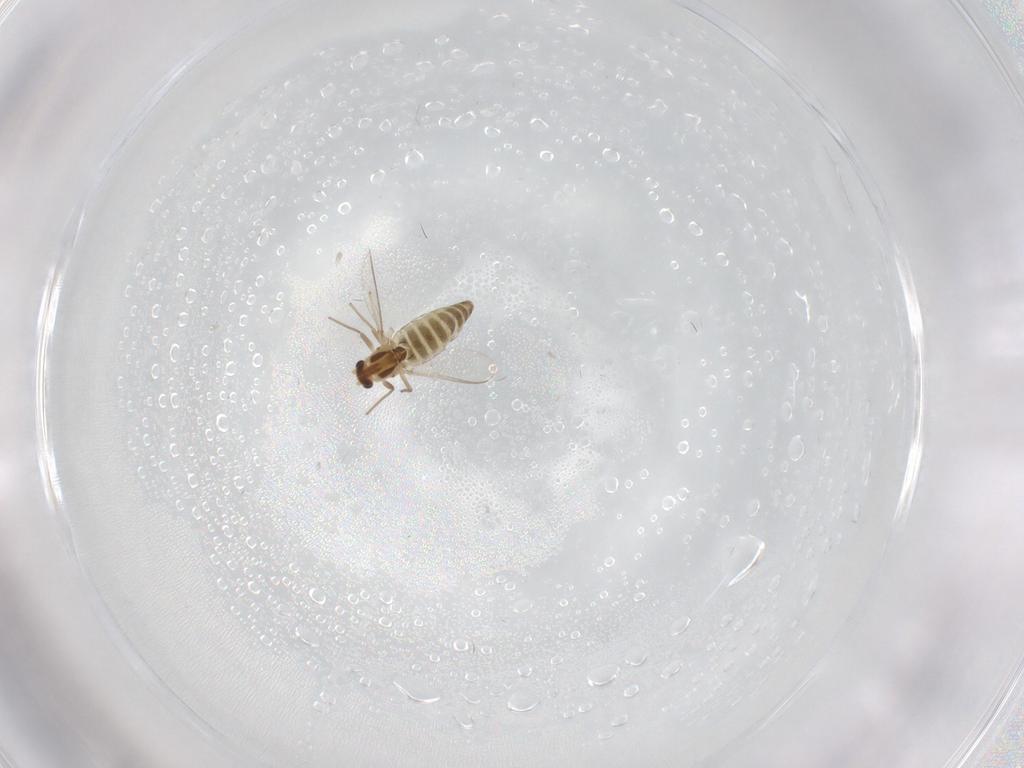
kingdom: Animalia
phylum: Arthropoda
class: Insecta
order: Diptera
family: Chironomidae
